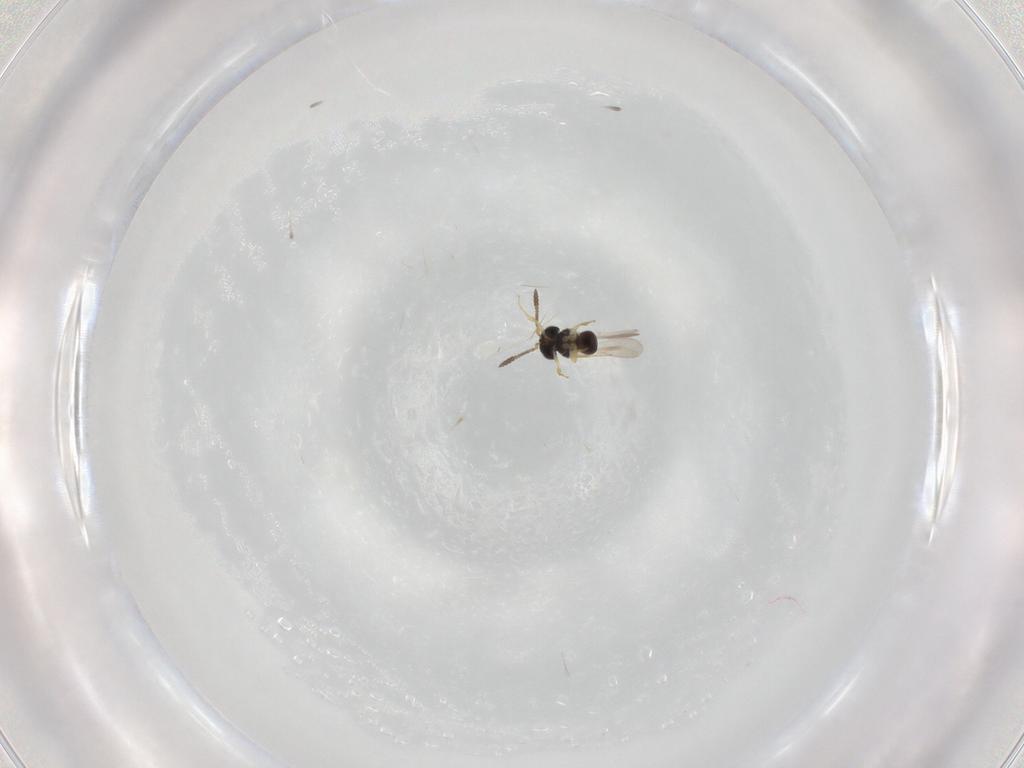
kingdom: Animalia
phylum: Arthropoda
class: Insecta
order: Hymenoptera
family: Scelionidae
